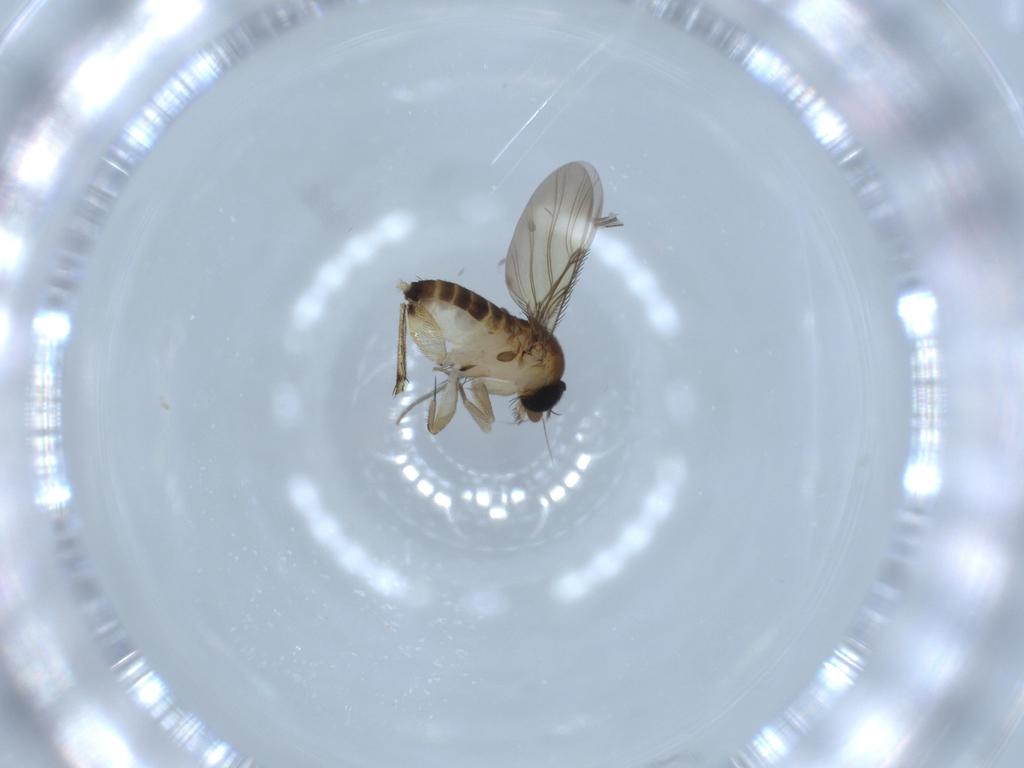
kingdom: Animalia
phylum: Arthropoda
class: Insecta
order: Diptera
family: Phoridae
